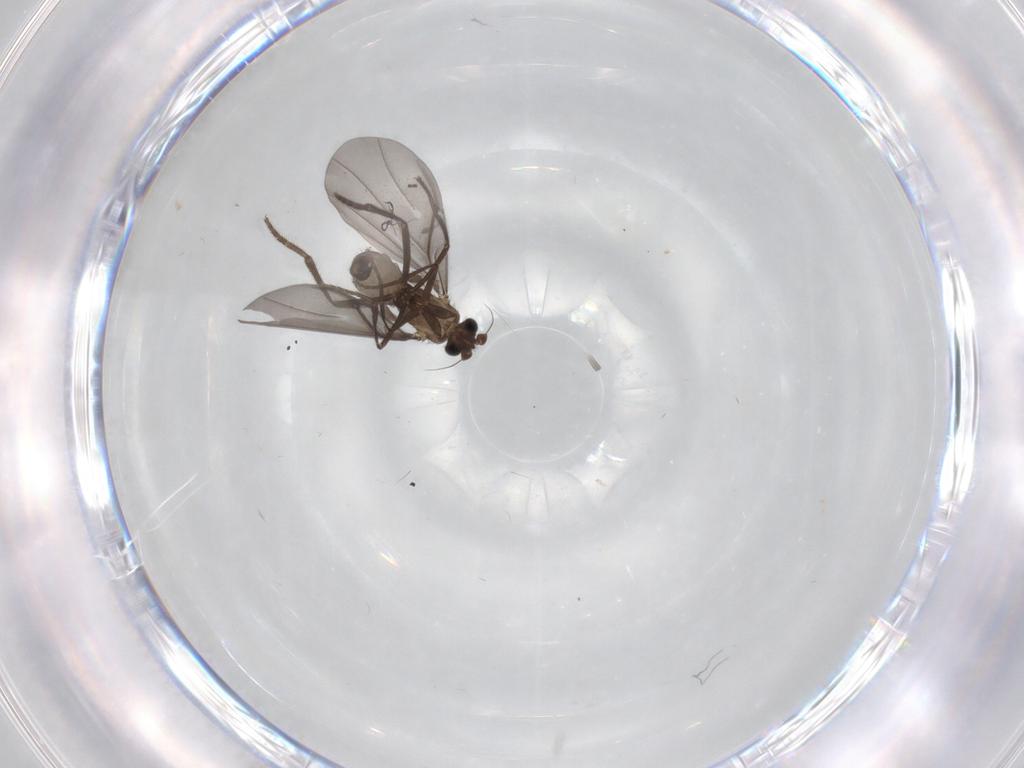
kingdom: Animalia
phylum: Arthropoda
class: Insecta
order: Diptera
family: Phoridae
